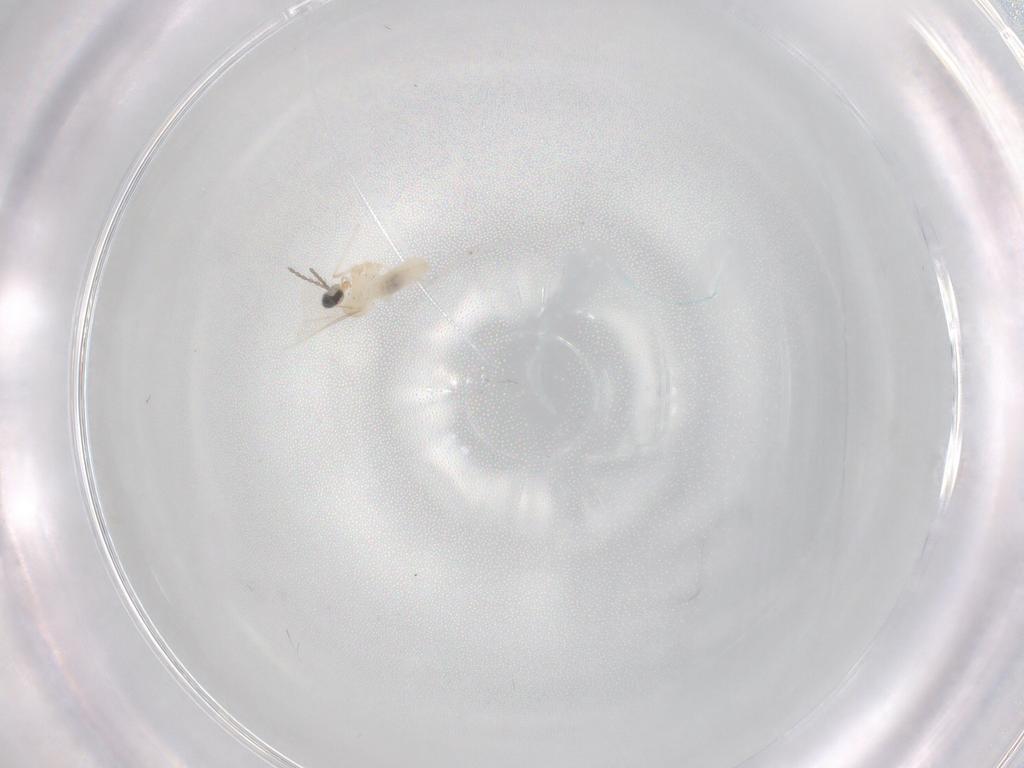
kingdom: Animalia
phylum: Arthropoda
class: Insecta
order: Diptera
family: Cecidomyiidae
